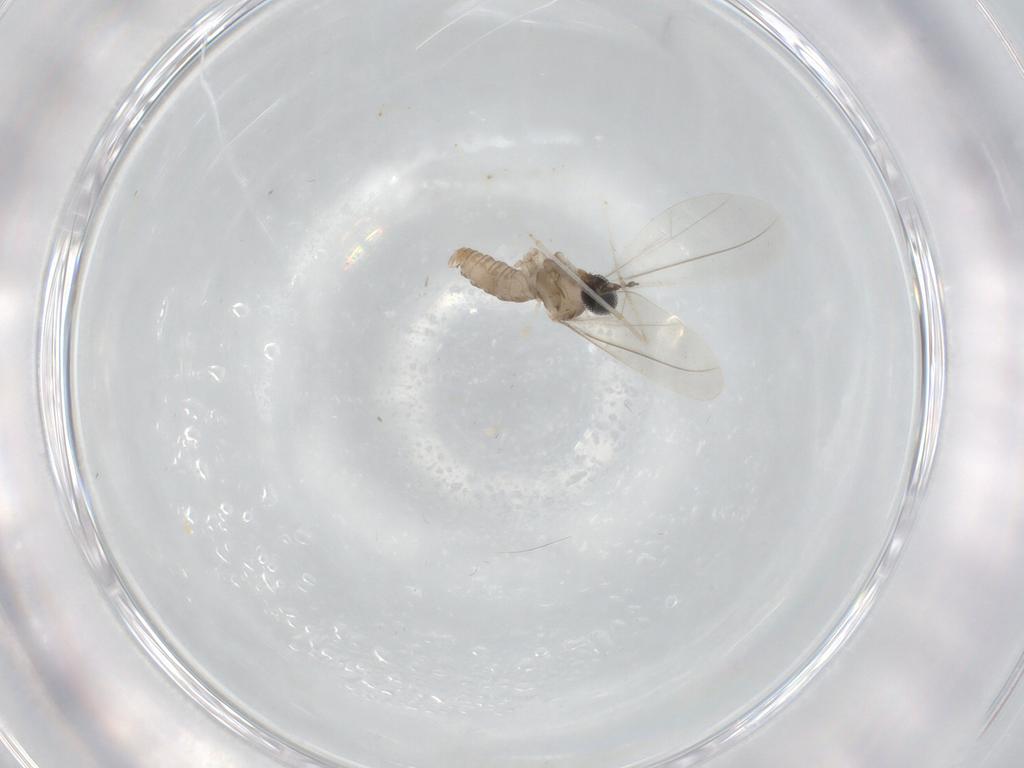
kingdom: Animalia
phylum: Arthropoda
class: Insecta
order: Diptera
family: Cecidomyiidae
